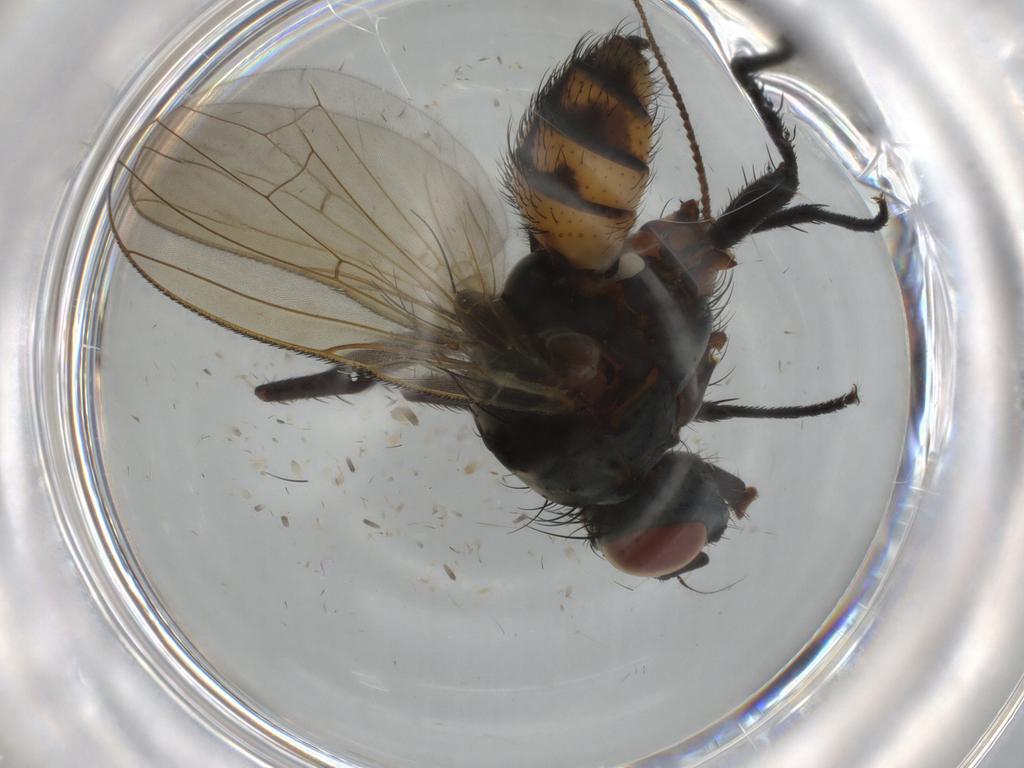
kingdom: Animalia
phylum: Arthropoda
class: Insecta
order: Diptera
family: Anthomyiidae
